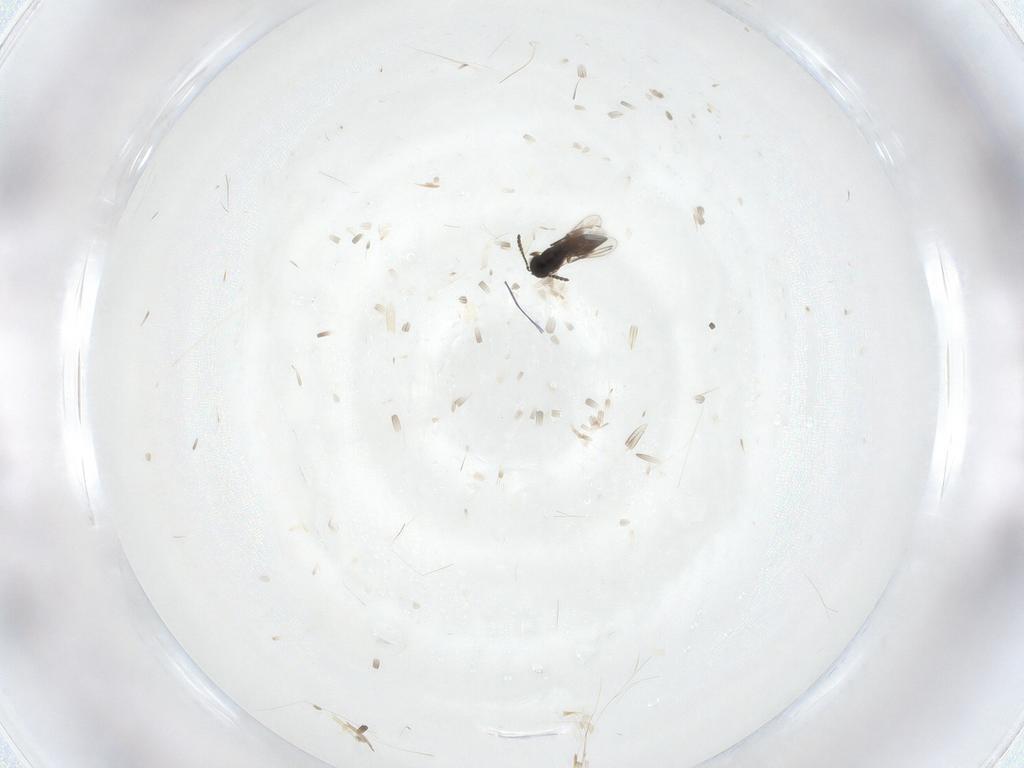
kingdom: Animalia
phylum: Arthropoda
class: Insecta
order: Hymenoptera
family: Scelionidae
